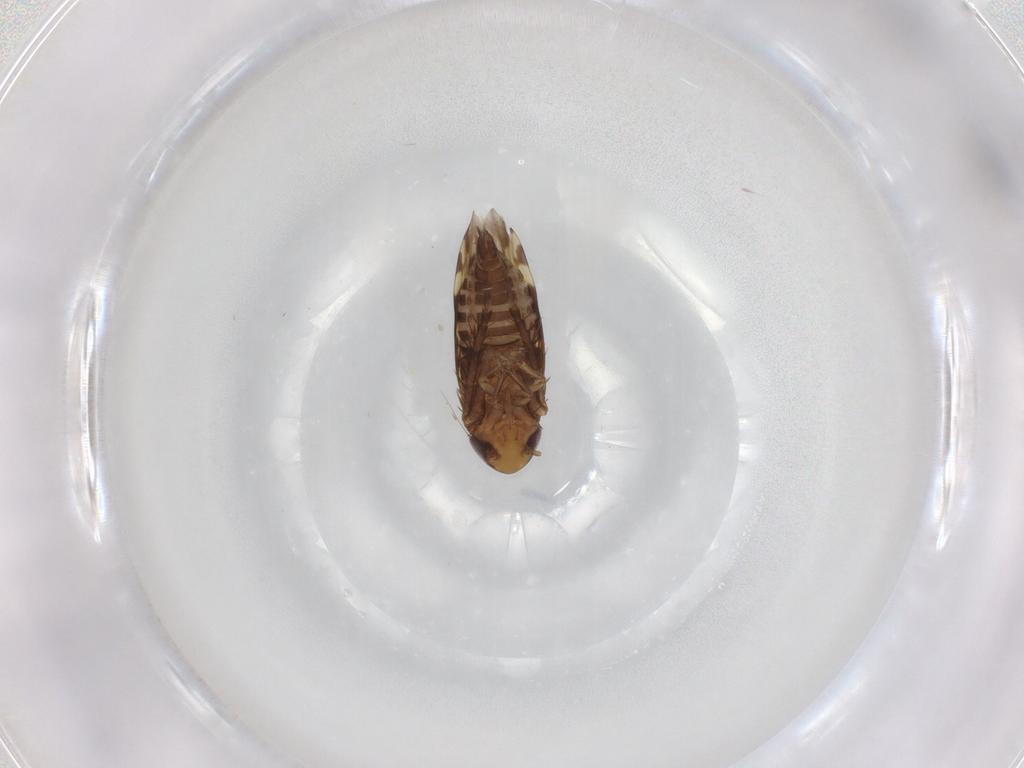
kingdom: Animalia
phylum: Arthropoda
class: Insecta
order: Hemiptera
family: Cicadellidae
